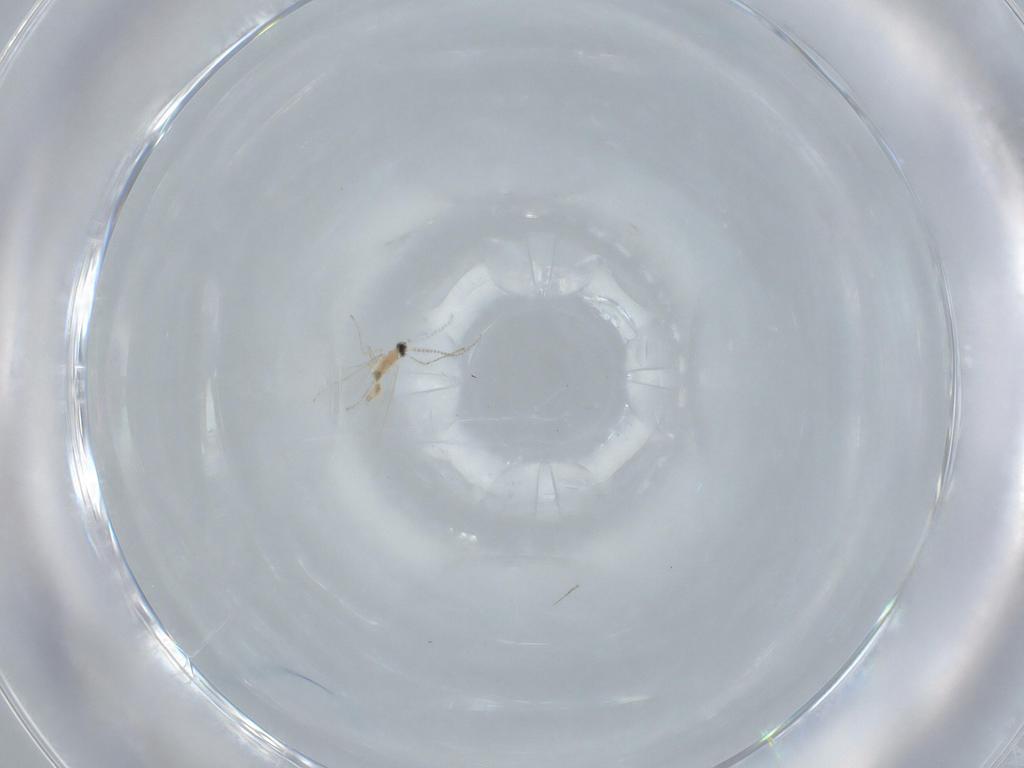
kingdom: Animalia
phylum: Arthropoda
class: Insecta
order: Diptera
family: Cecidomyiidae
